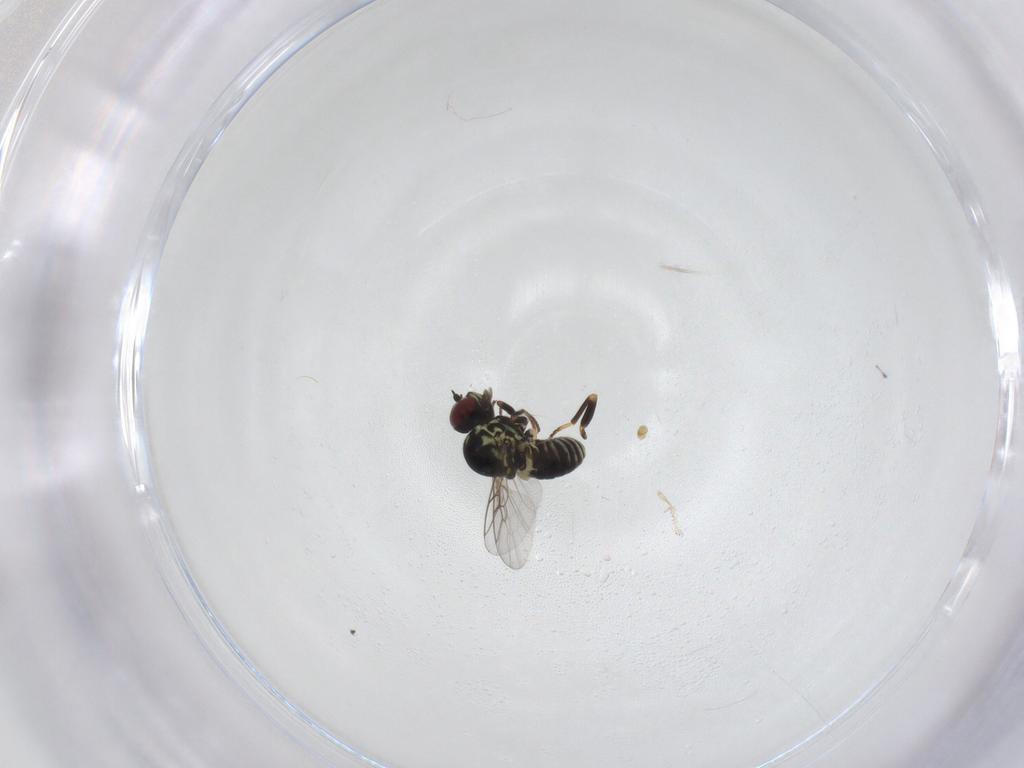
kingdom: Animalia
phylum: Arthropoda
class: Insecta
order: Diptera
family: Mythicomyiidae
